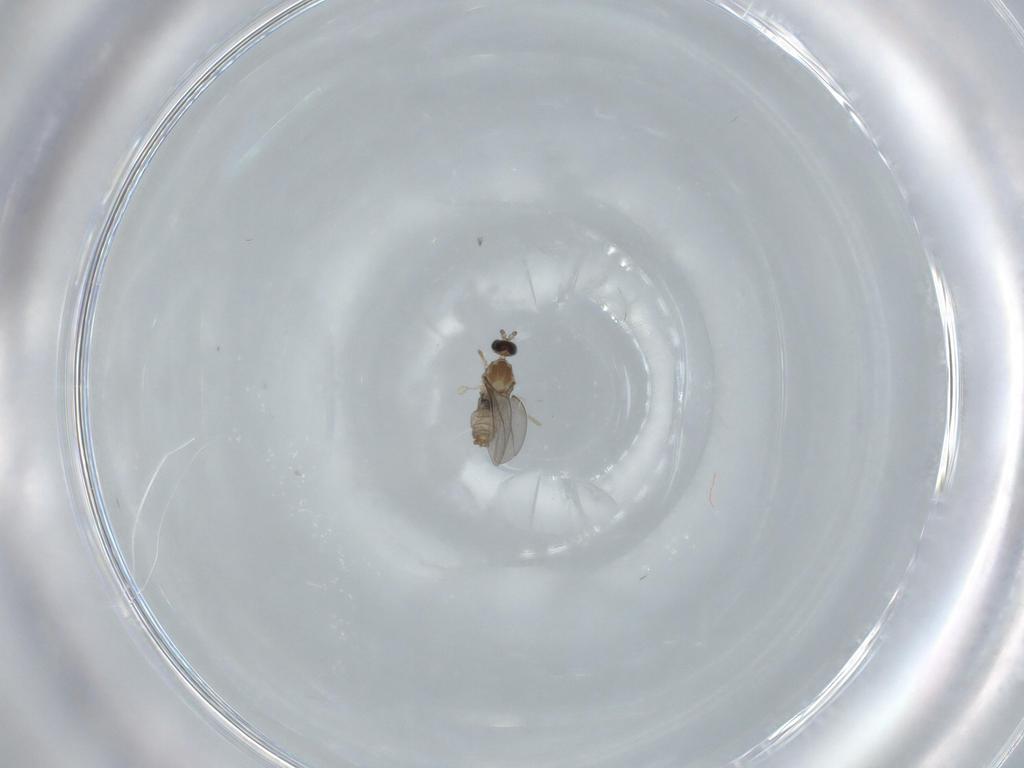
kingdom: Animalia
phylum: Arthropoda
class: Insecta
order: Diptera
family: Cecidomyiidae
